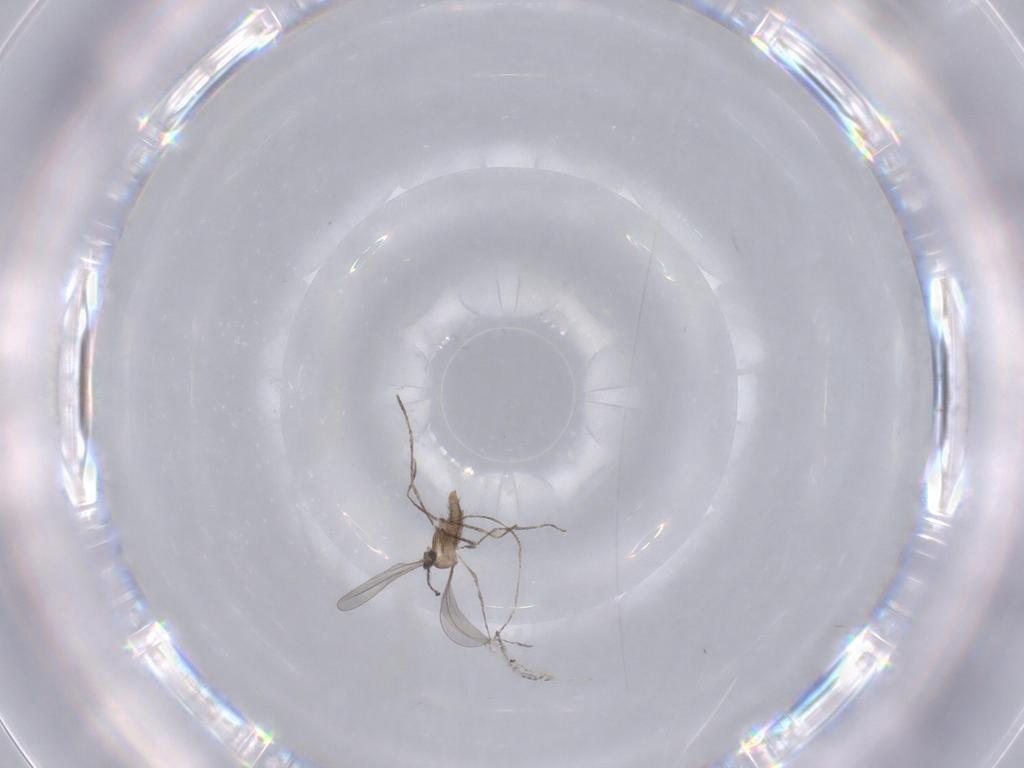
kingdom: Animalia
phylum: Arthropoda
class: Insecta
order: Diptera
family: Cecidomyiidae
